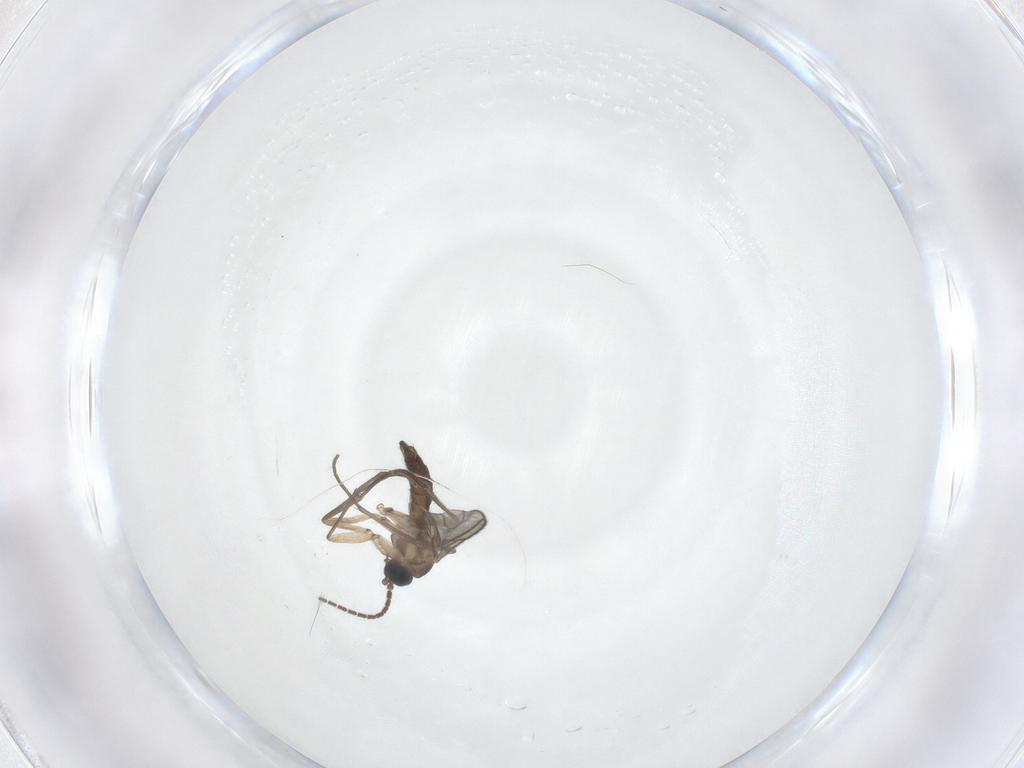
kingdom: Animalia
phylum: Arthropoda
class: Insecta
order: Diptera
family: Sciaridae
